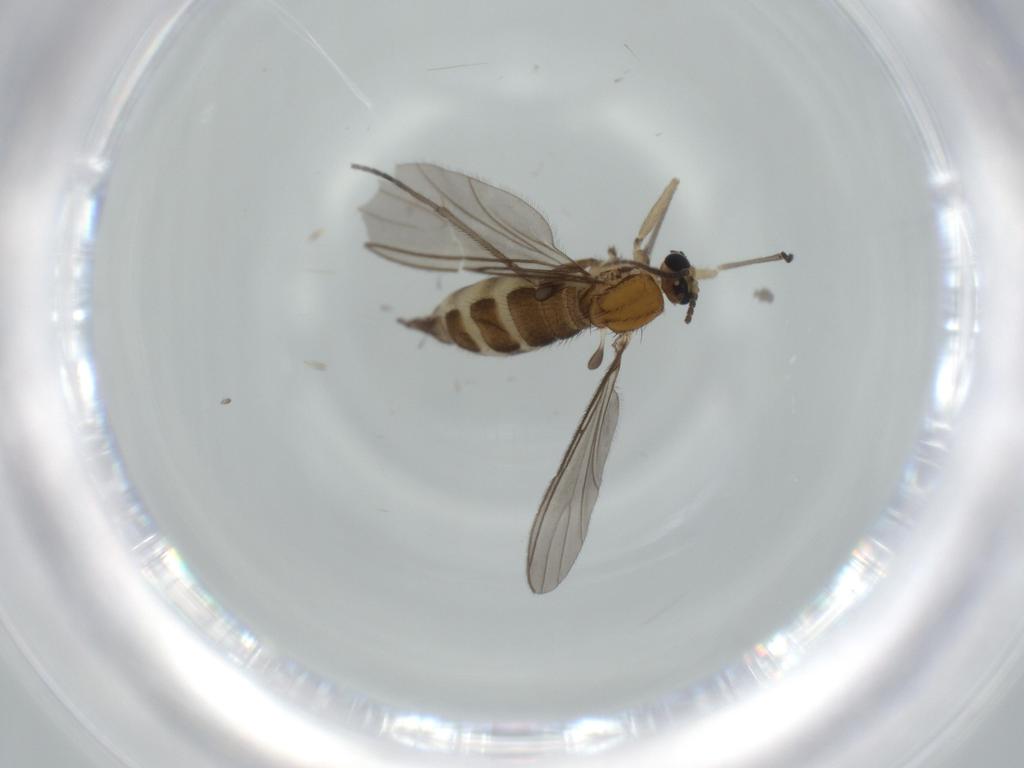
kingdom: Animalia
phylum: Arthropoda
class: Insecta
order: Diptera
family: Sciaridae
